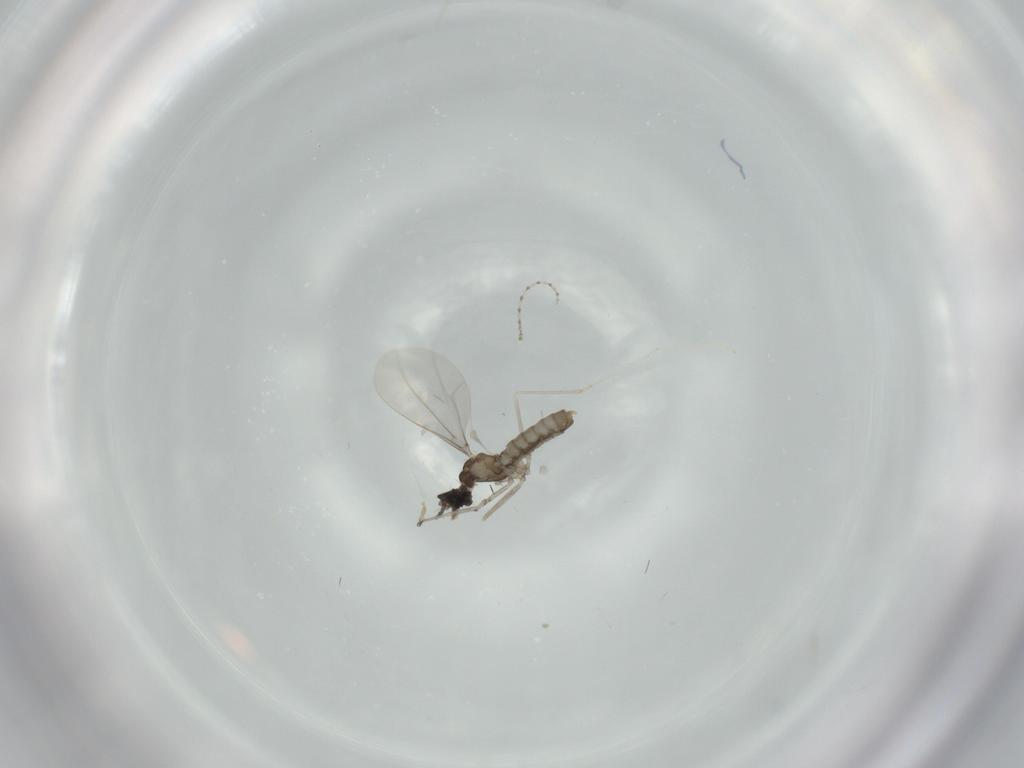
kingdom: Animalia
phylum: Arthropoda
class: Insecta
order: Diptera
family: Cecidomyiidae
